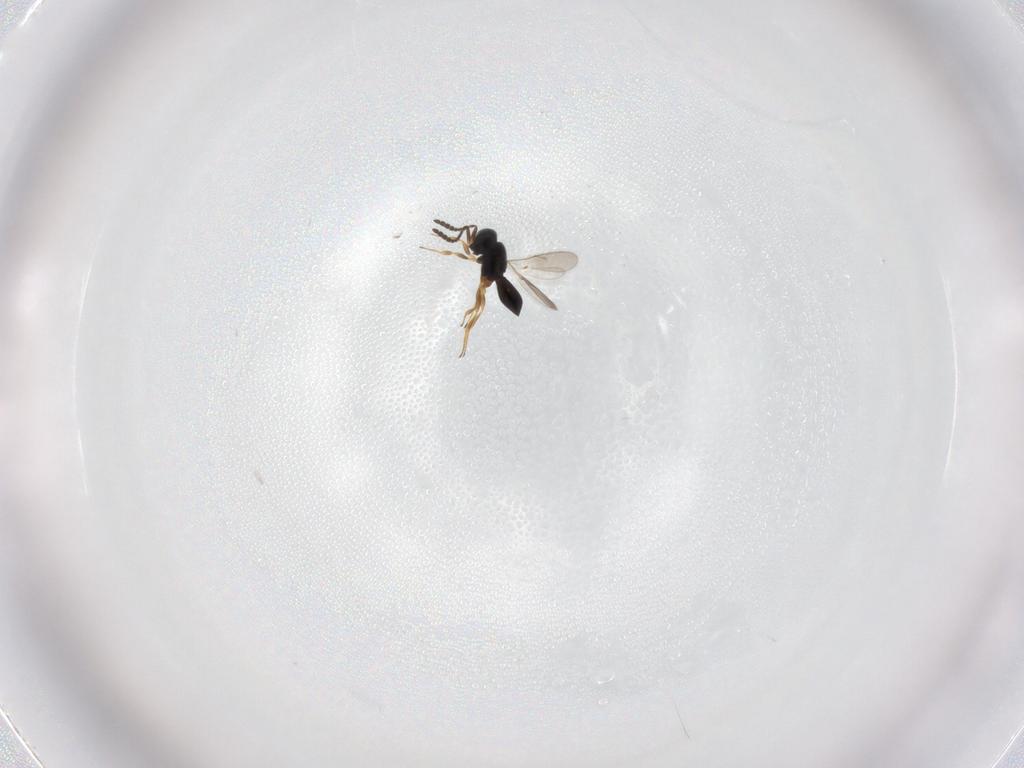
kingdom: Animalia
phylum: Arthropoda
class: Insecta
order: Hymenoptera
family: Scelionidae
